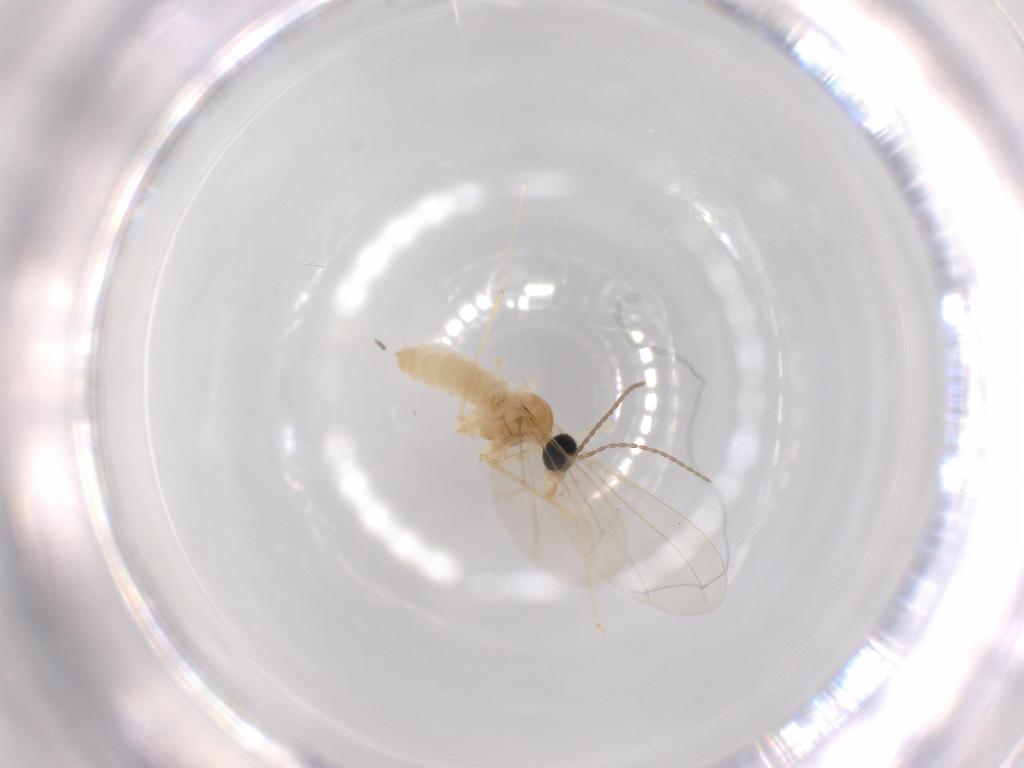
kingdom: Animalia
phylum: Arthropoda
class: Insecta
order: Diptera
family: Cecidomyiidae
